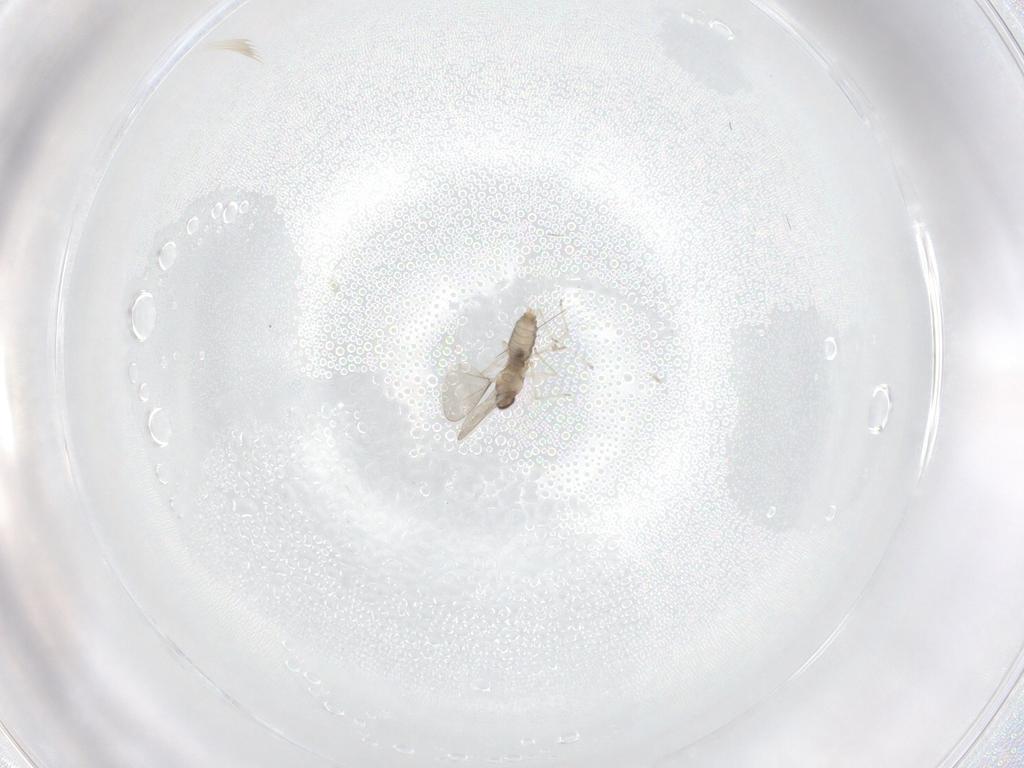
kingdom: Animalia
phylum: Arthropoda
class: Insecta
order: Diptera
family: Cecidomyiidae
